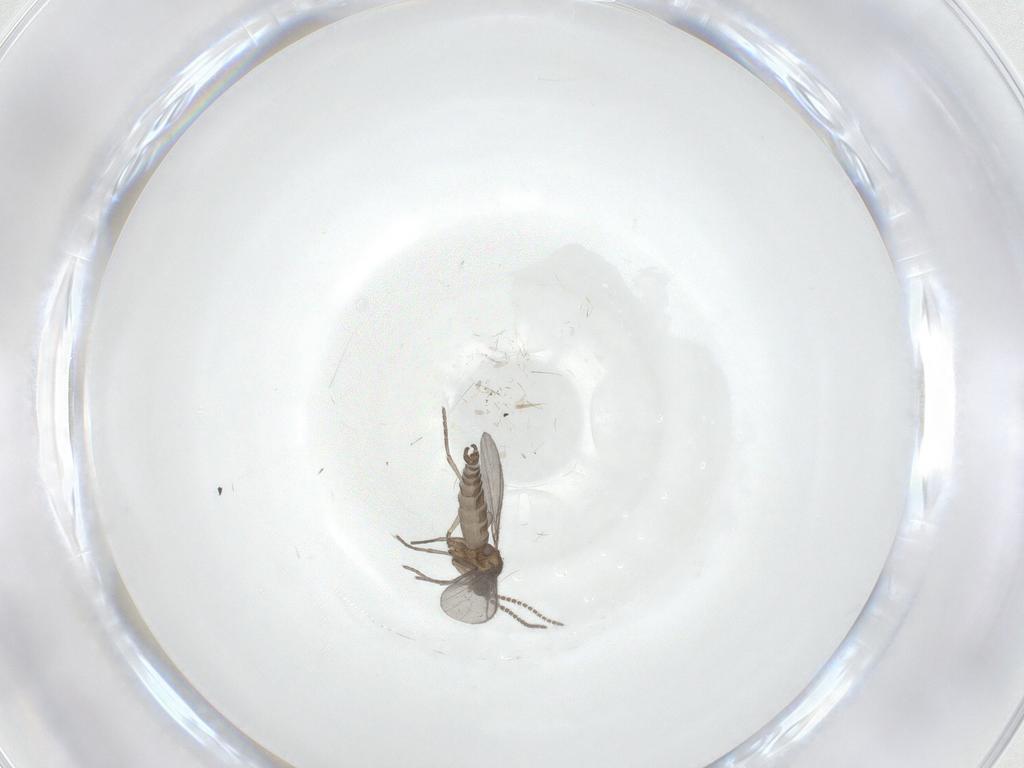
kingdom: Animalia
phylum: Arthropoda
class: Insecta
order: Diptera
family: Sciaridae
